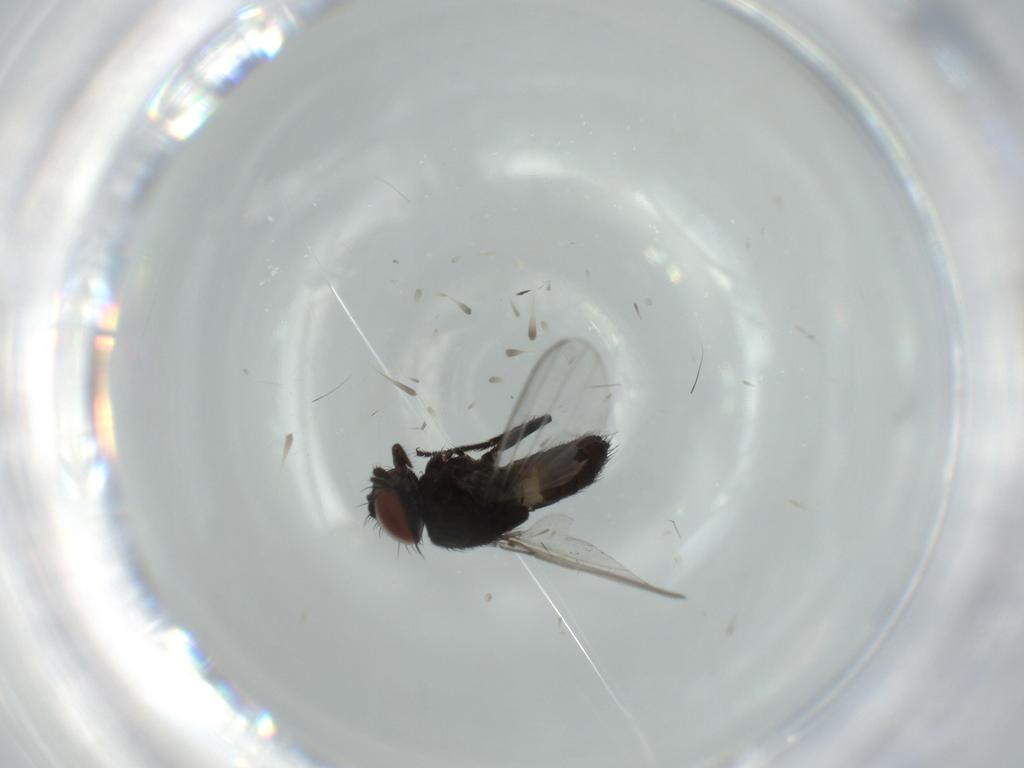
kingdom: Animalia
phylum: Arthropoda
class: Insecta
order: Diptera
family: Milichiidae
